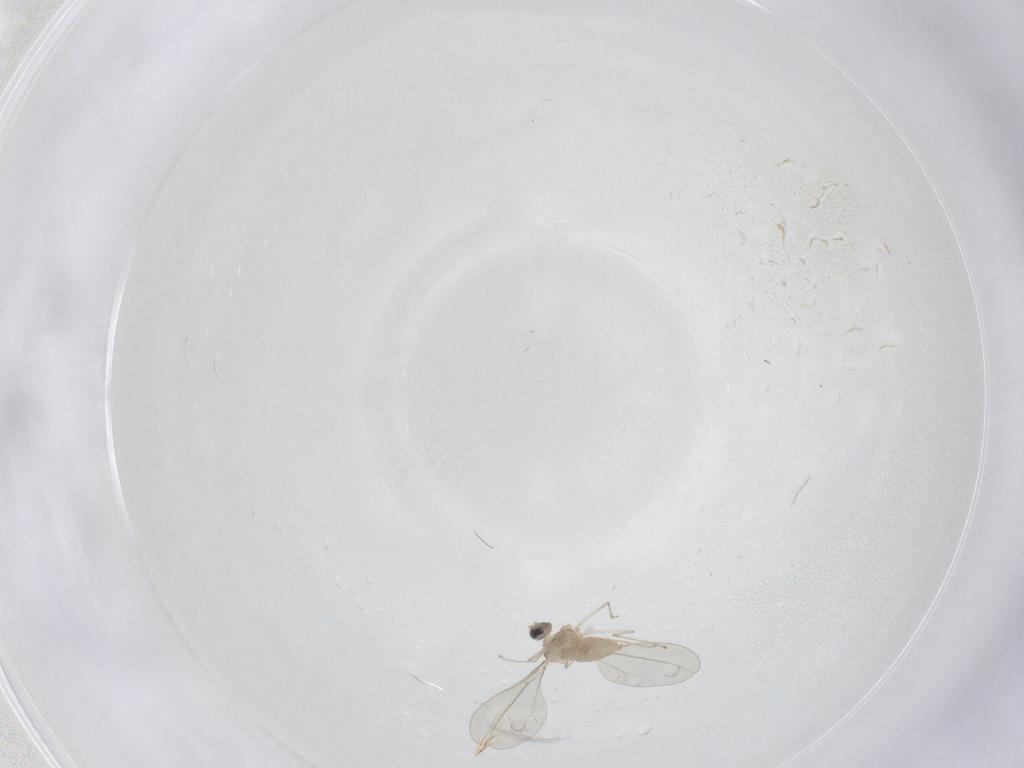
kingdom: Animalia
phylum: Arthropoda
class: Insecta
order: Diptera
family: Cecidomyiidae
